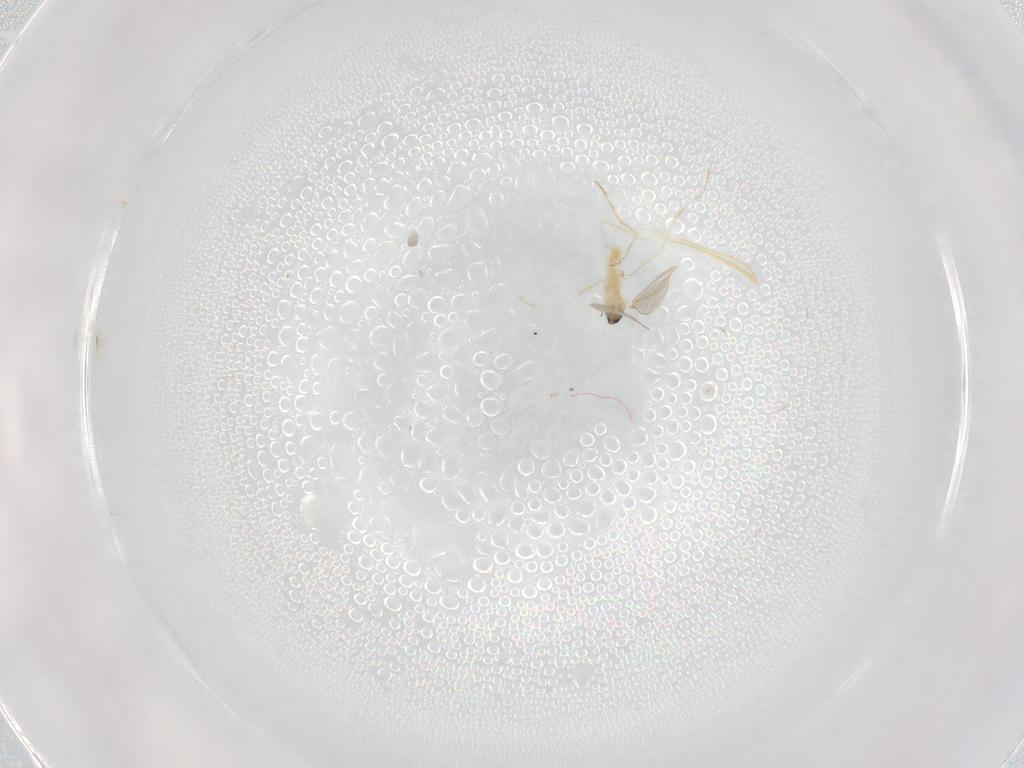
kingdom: Animalia
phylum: Arthropoda
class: Insecta
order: Diptera
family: Cecidomyiidae
